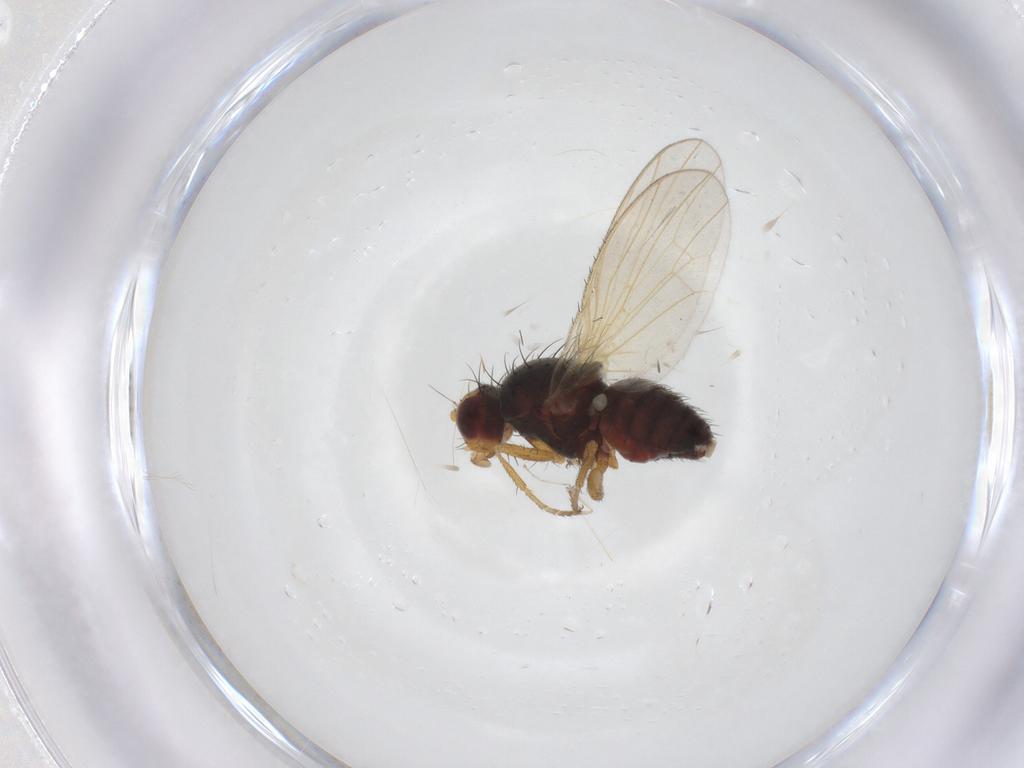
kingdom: Animalia
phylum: Arthropoda
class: Insecta
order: Diptera
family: Heleomyzidae
